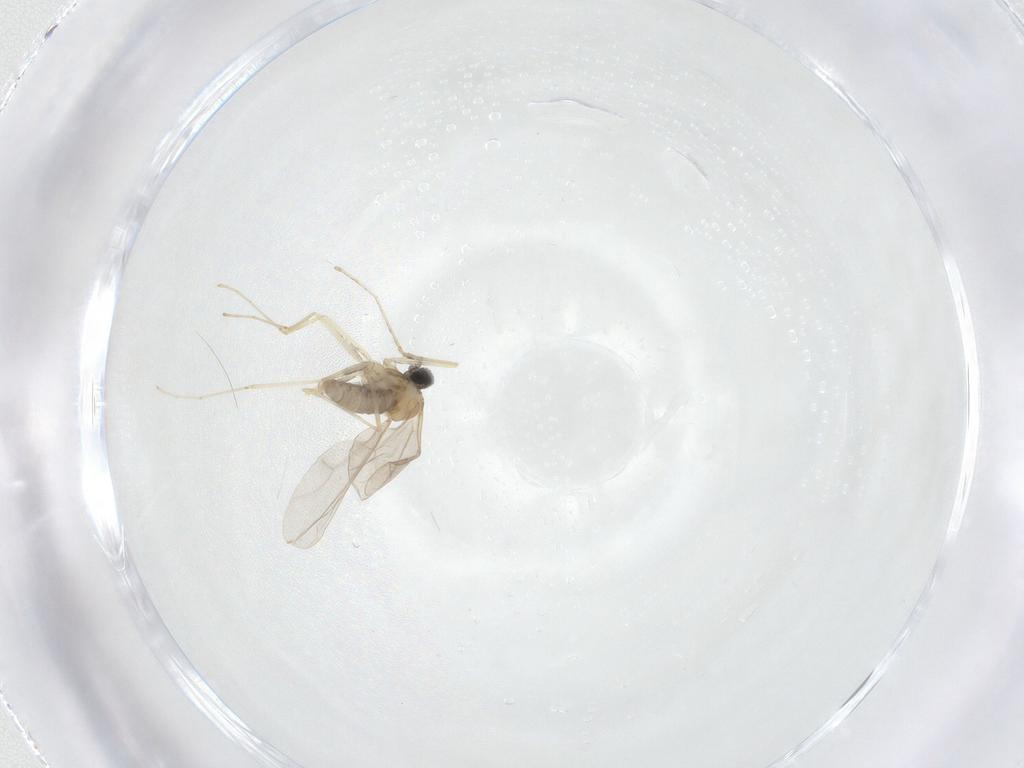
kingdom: Animalia
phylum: Arthropoda
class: Insecta
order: Diptera
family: Cecidomyiidae
